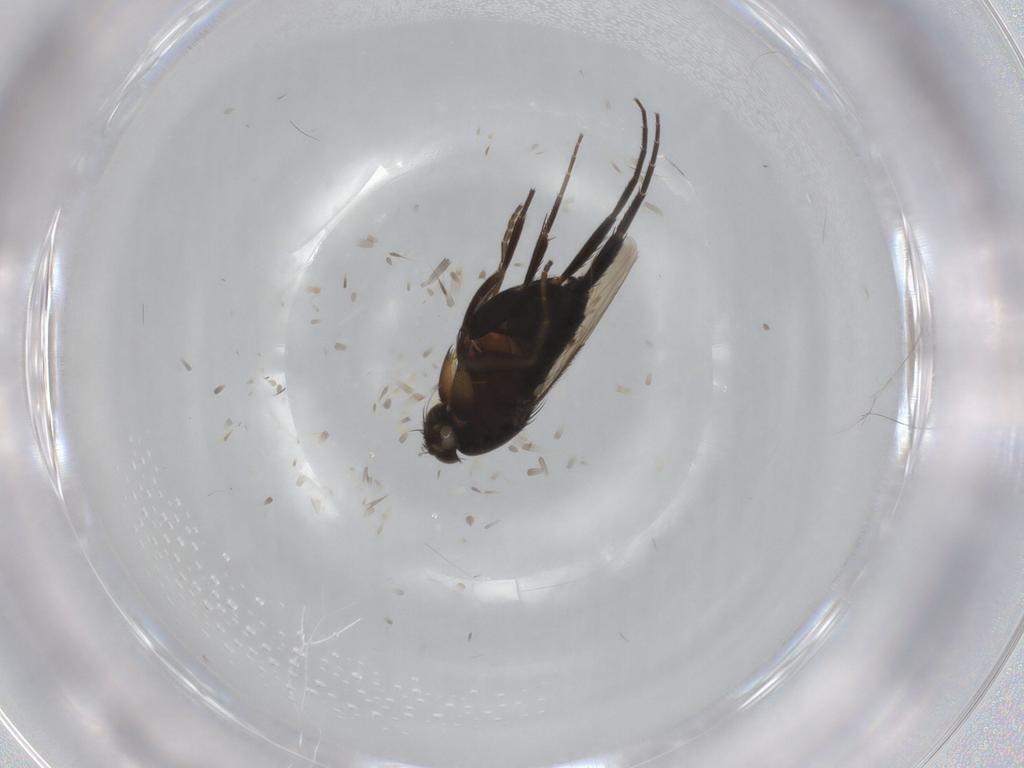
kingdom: Animalia
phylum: Arthropoda
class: Insecta
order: Diptera
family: Phoridae
